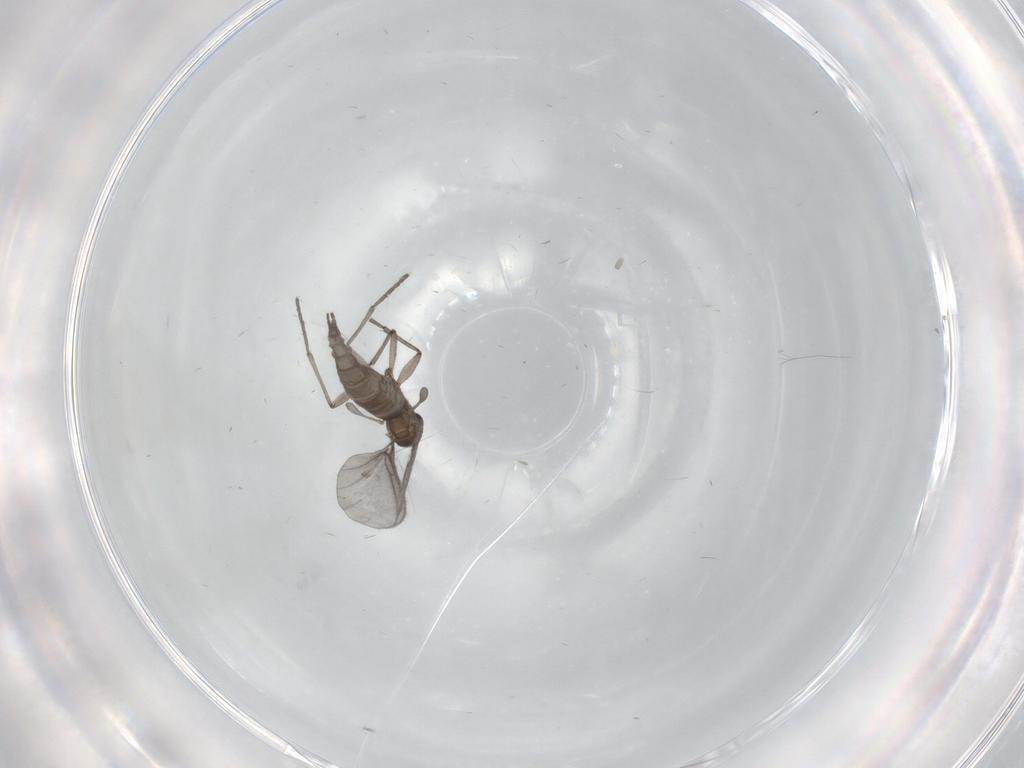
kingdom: Animalia
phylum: Arthropoda
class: Insecta
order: Diptera
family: Sciaridae
